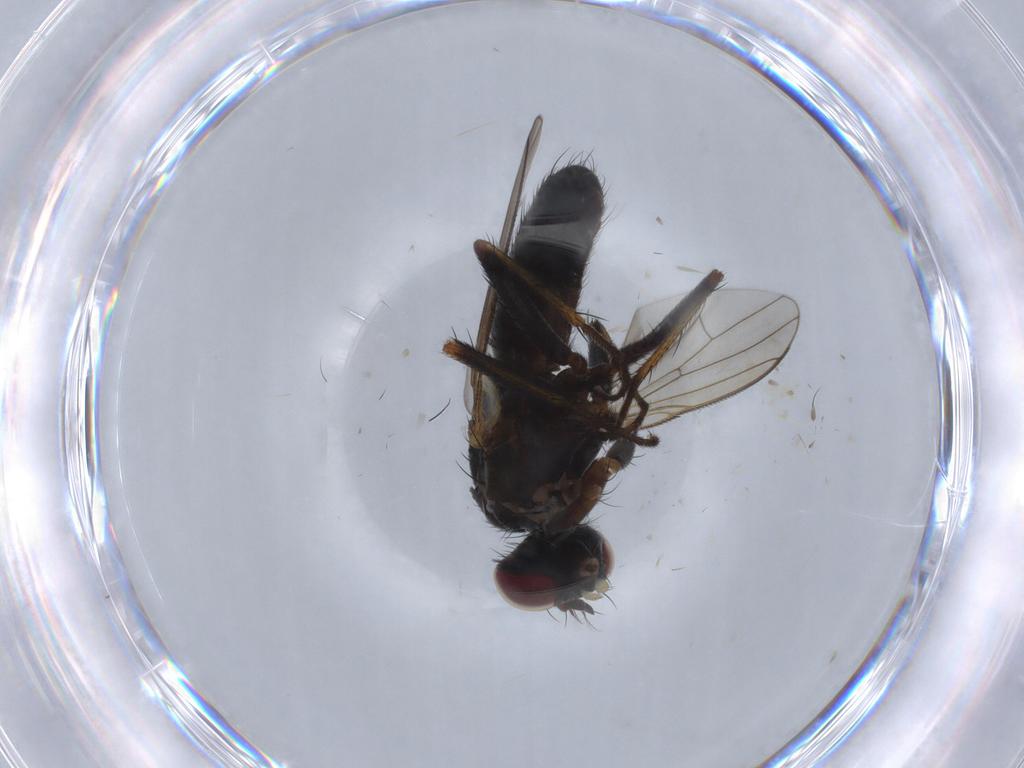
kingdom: Animalia
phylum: Arthropoda
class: Insecta
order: Diptera
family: Muscidae
